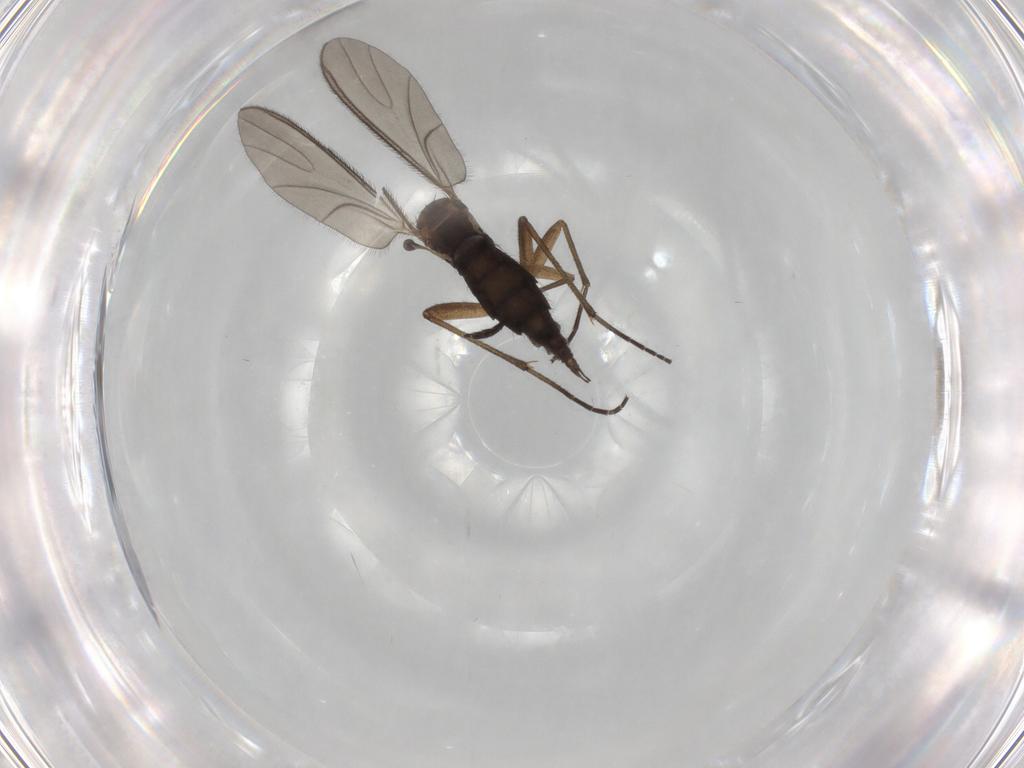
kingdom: Animalia
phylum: Arthropoda
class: Insecta
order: Diptera
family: Sciaridae
